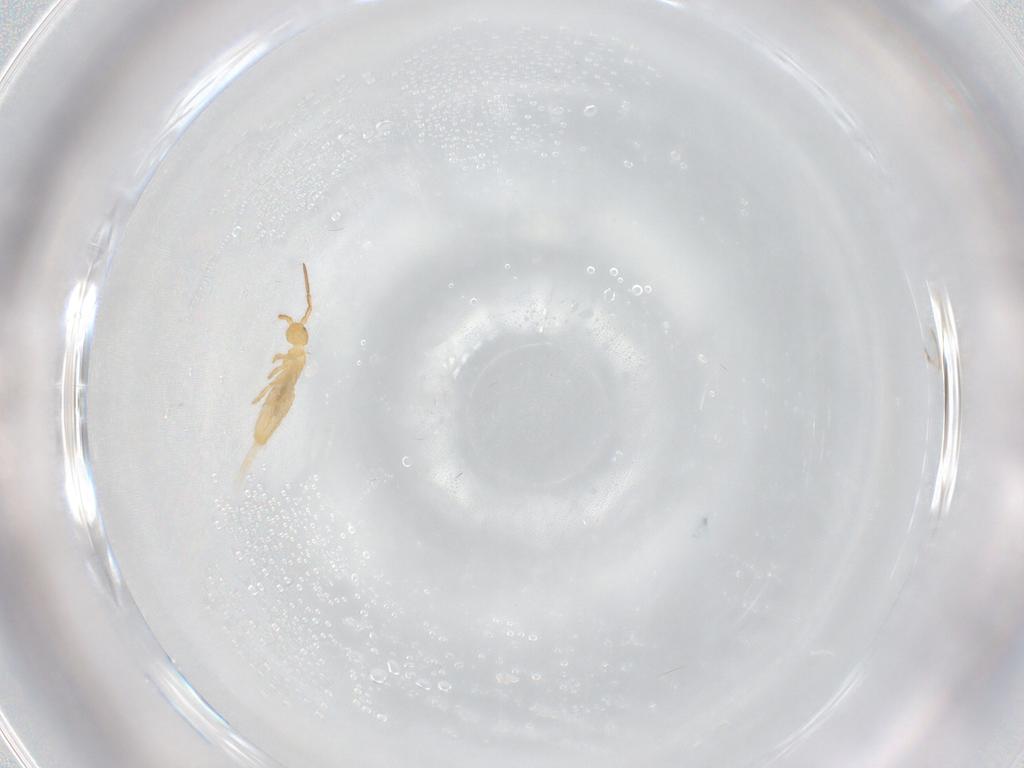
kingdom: Animalia
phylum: Arthropoda
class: Collembola
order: Entomobryomorpha
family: Entomobryidae
